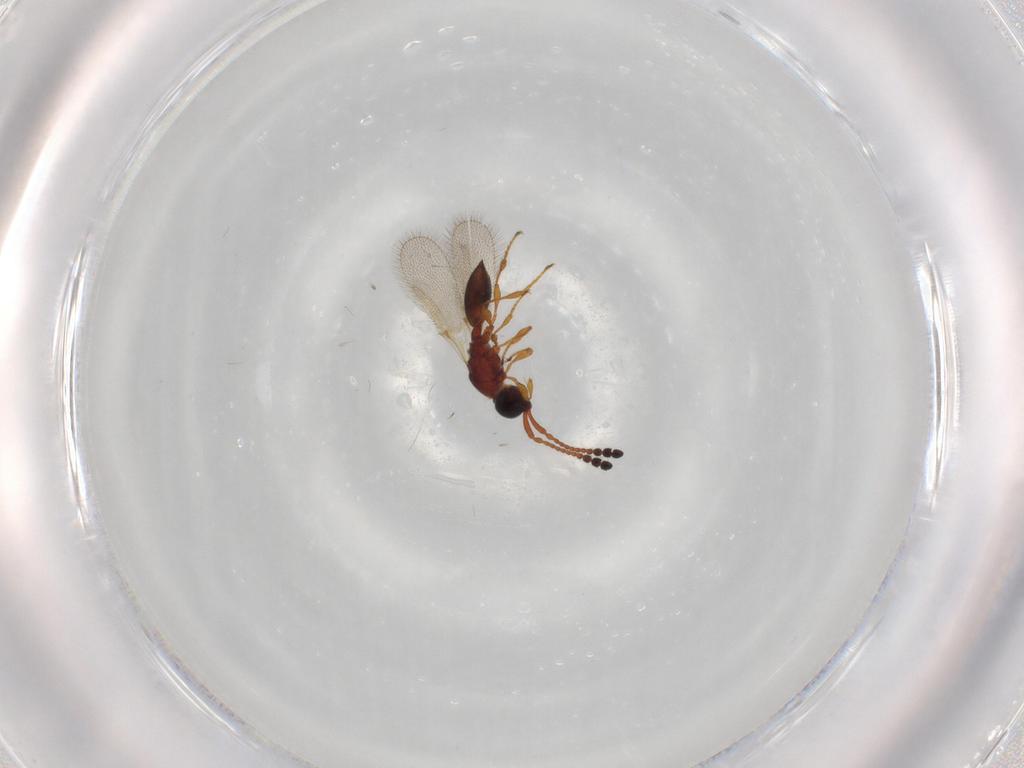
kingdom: Animalia
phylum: Arthropoda
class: Insecta
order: Hymenoptera
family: Diapriidae
